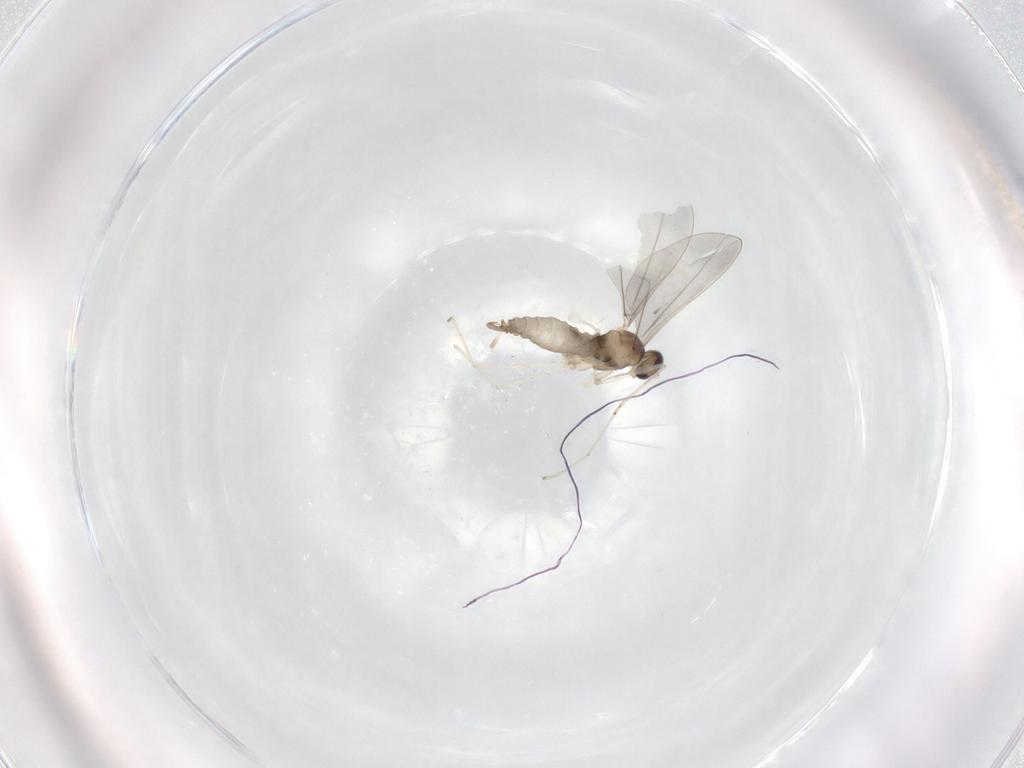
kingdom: Animalia
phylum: Arthropoda
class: Insecta
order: Diptera
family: Cecidomyiidae
